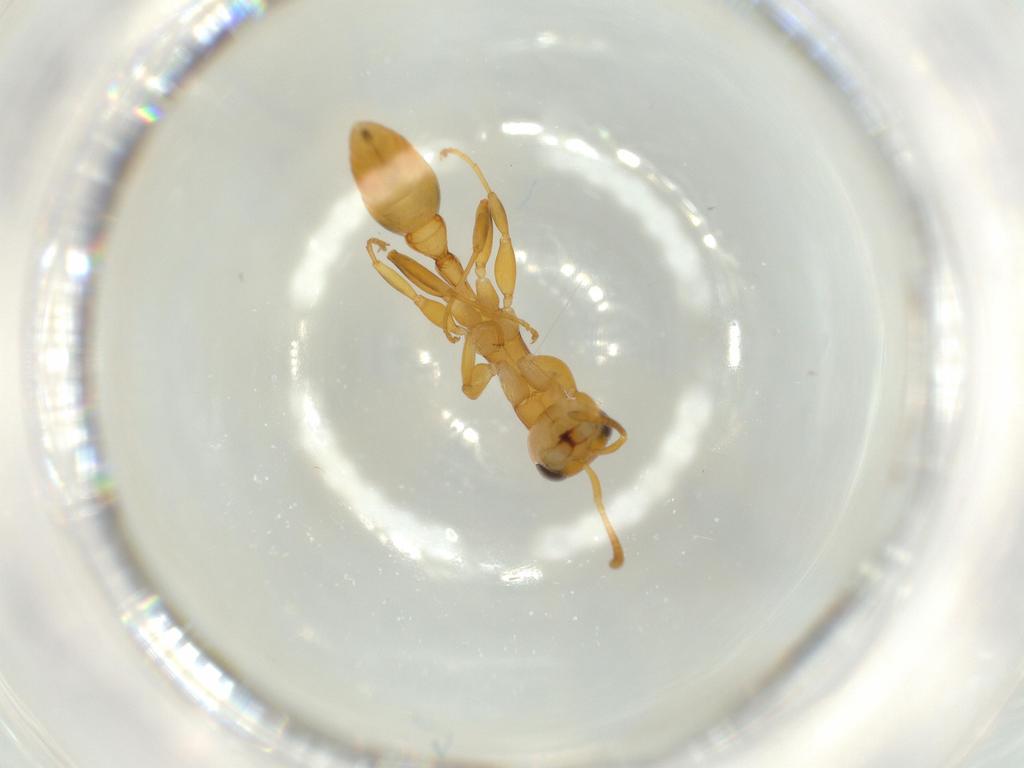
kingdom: Animalia
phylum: Arthropoda
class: Insecta
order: Hymenoptera
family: Formicidae
